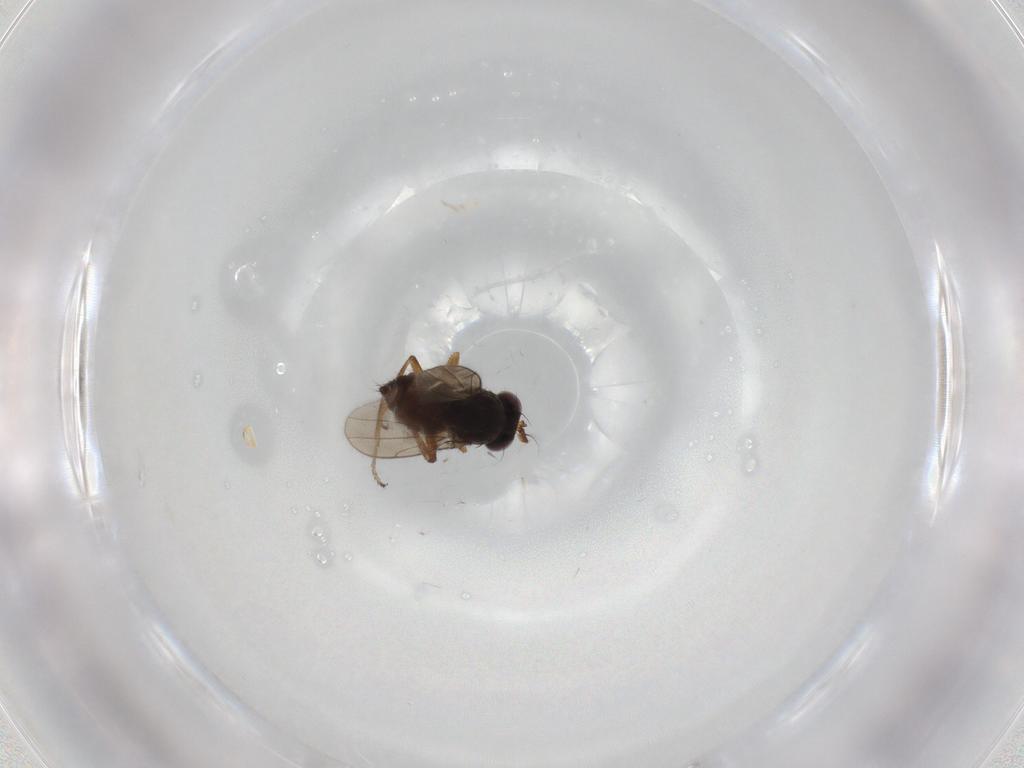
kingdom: Animalia
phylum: Arthropoda
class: Insecta
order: Diptera
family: Ephydridae
